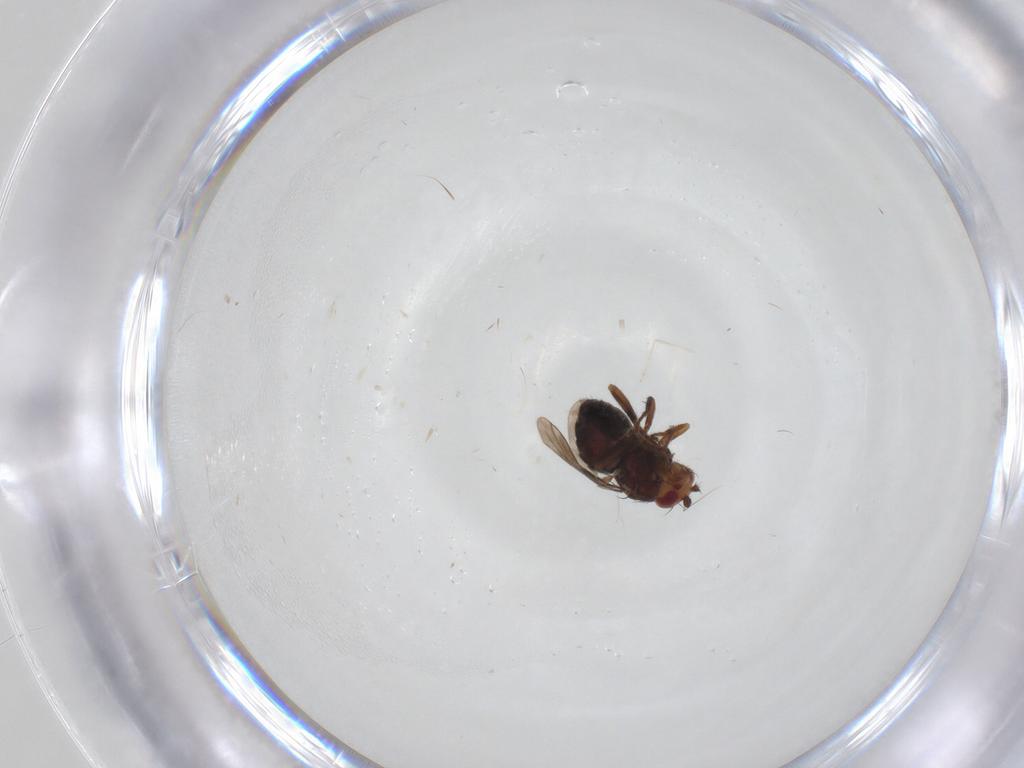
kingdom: Animalia
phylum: Arthropoda
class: Insecta
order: Diptera
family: Sphaeroceridae
